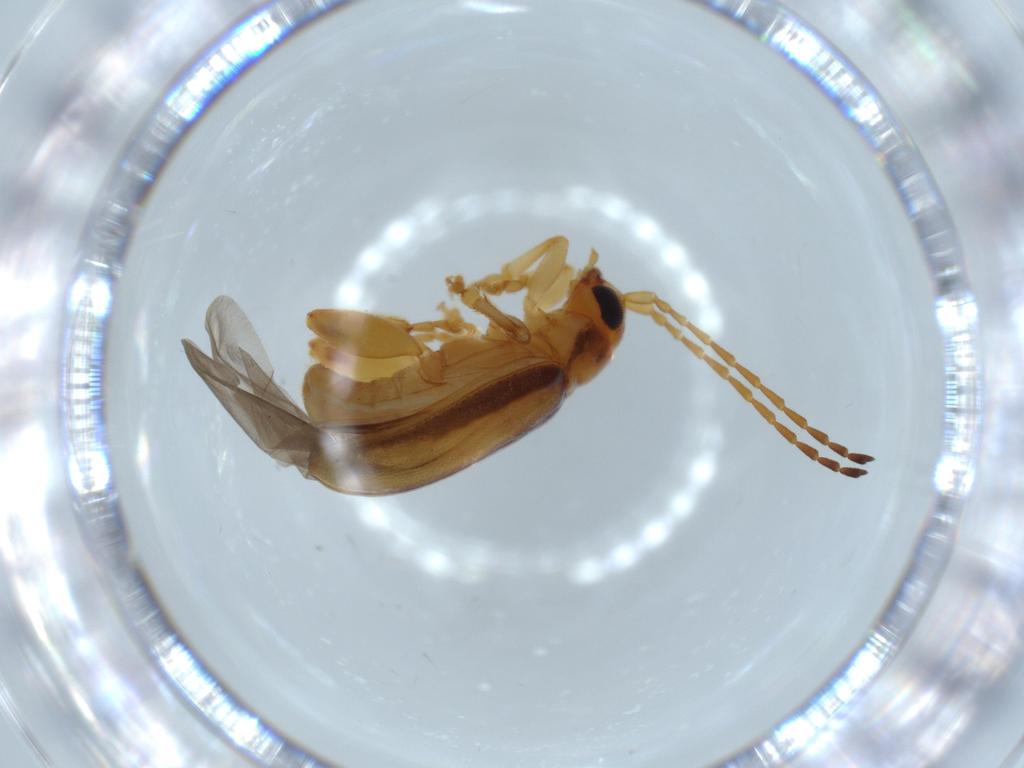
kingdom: Animalia
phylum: Arthropoda
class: Insecta
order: Coleoptera
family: Chrysomelidae
